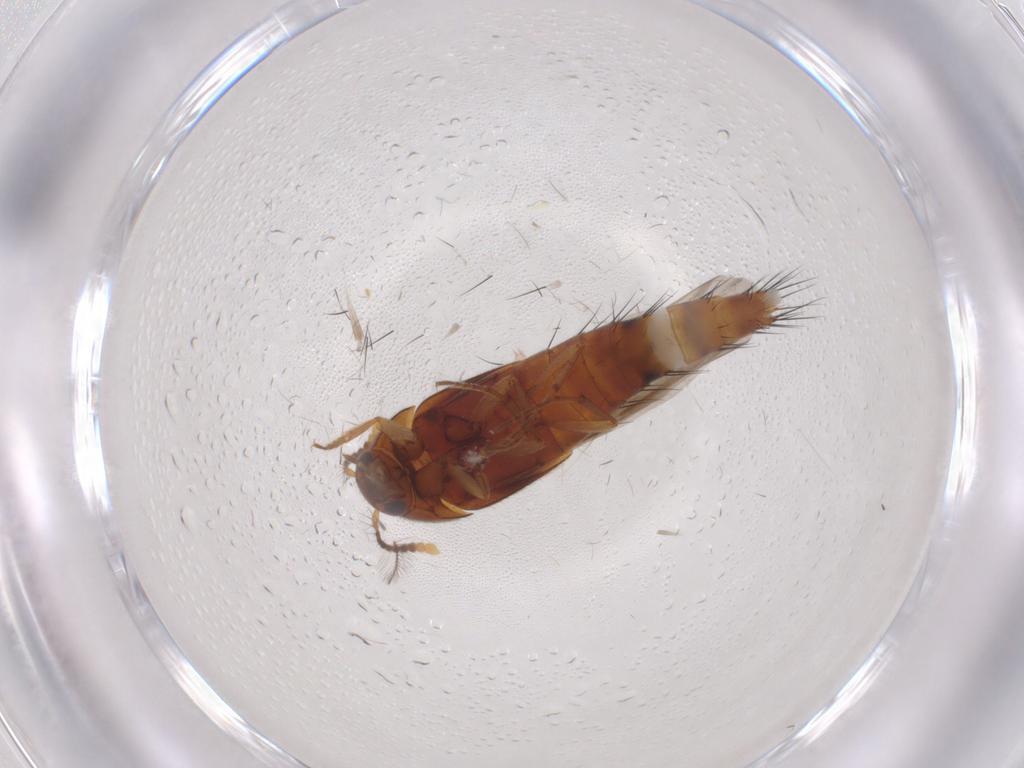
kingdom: Animalia
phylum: Arthropoda
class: Insecta
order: Coleoptera
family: Staphylinidae
